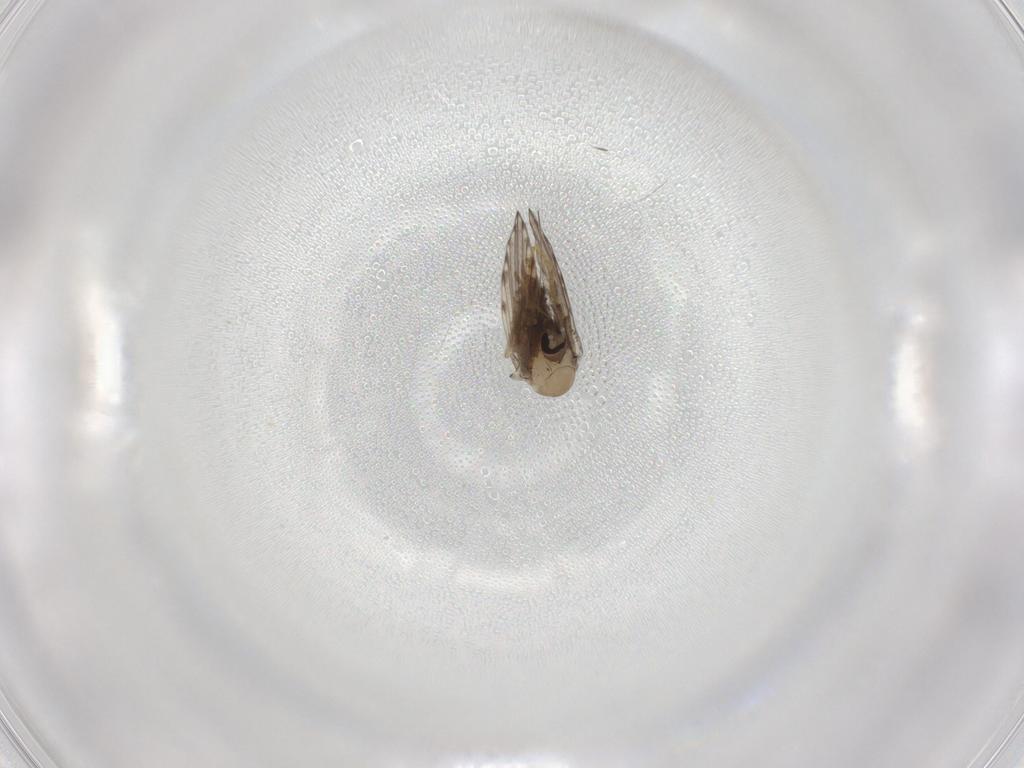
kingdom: Animalia
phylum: Arthropoda
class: Insecta
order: Diptera
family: Psychodidae
